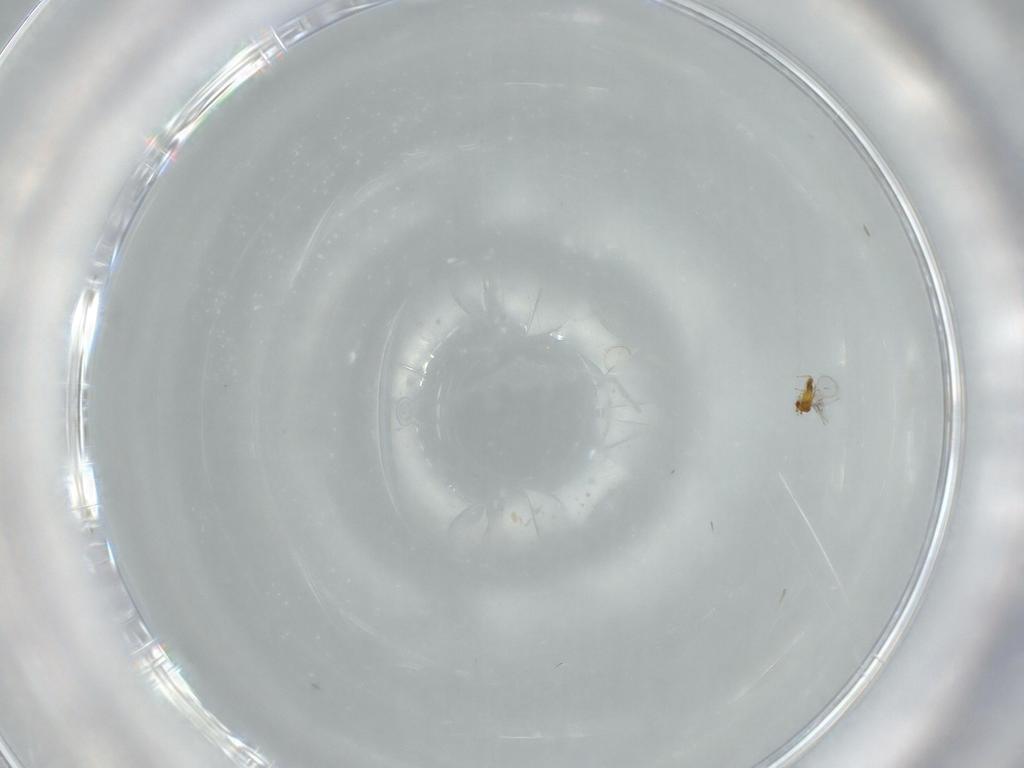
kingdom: Animalia
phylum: Arthropoda
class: Insecta
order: Hymenoptera
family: Trichogrammatidae
